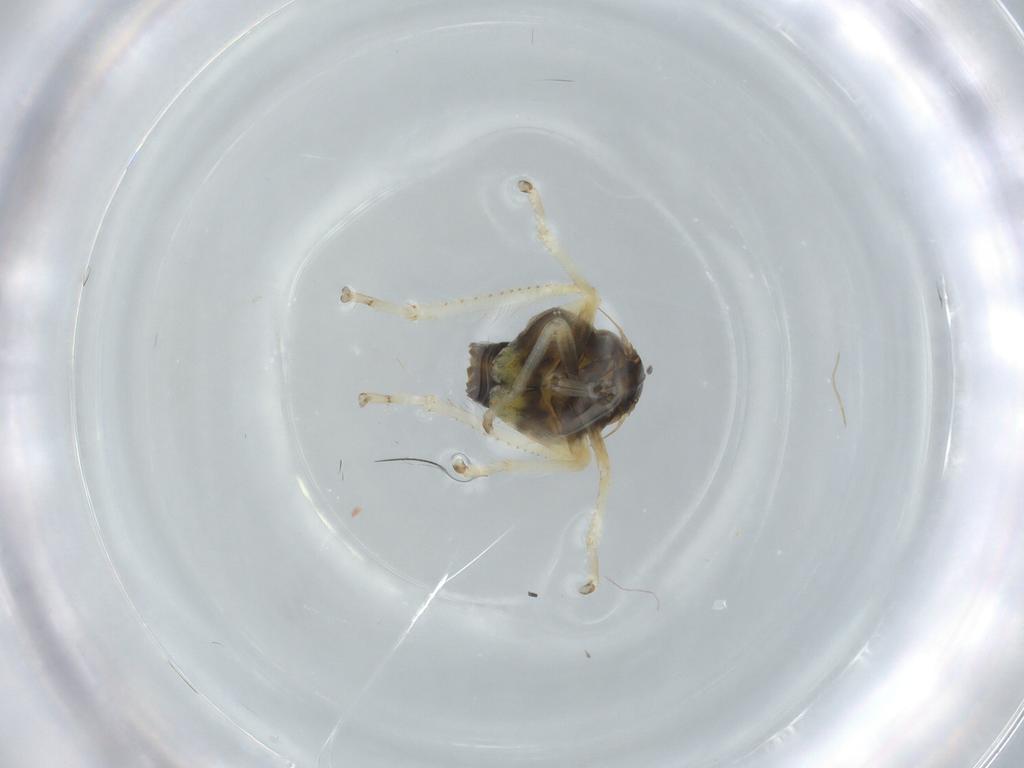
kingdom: Animalia
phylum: Arthropoda
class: Insecta
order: Hemiptera
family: Cicadellidae
